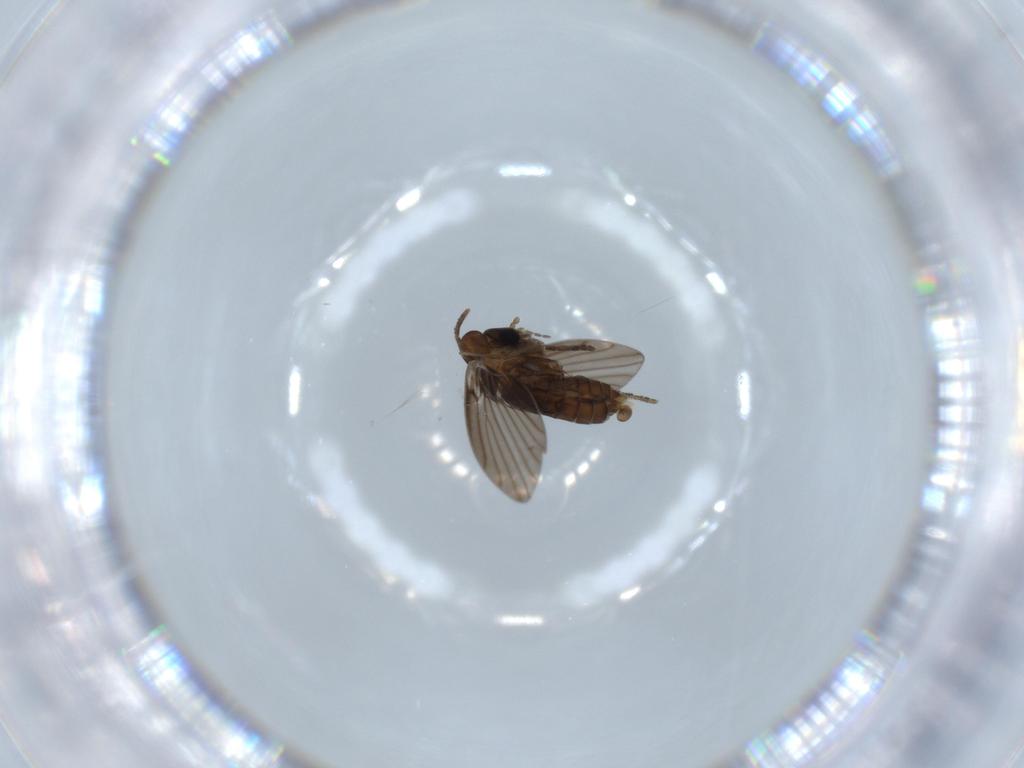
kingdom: Animalia
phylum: Arthropoda
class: Insecta
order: Diptera
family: Psychodidae
